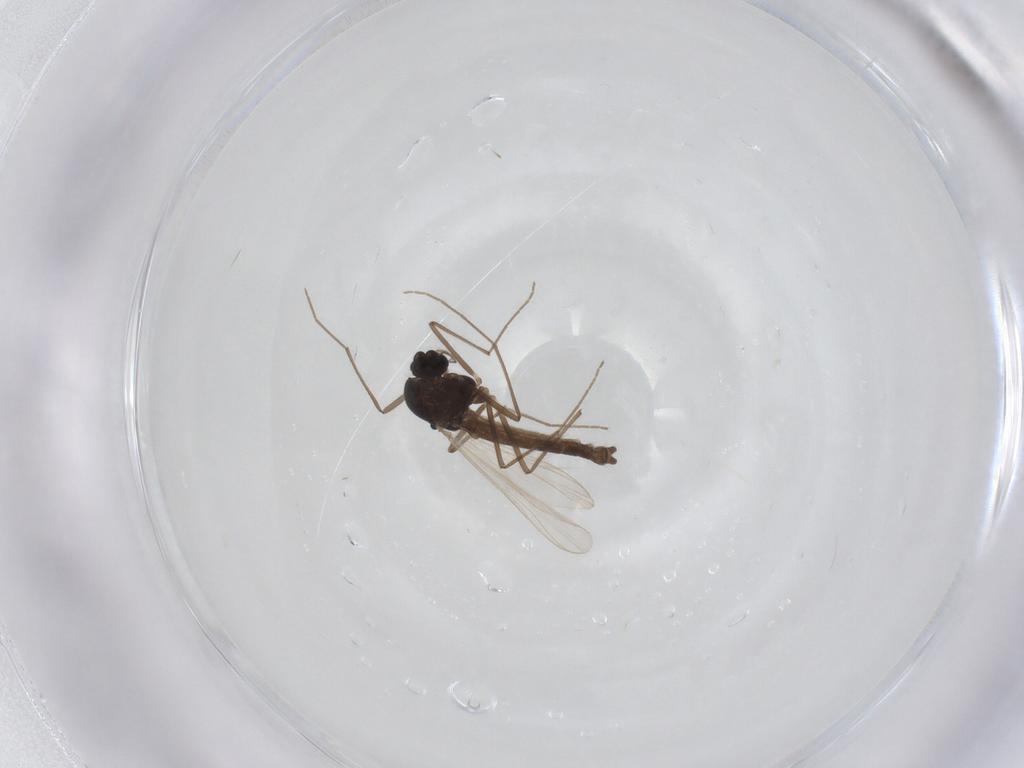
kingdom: Animalia
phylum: Arthropoda
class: Insecta
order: Diptera
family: Chironomidae
